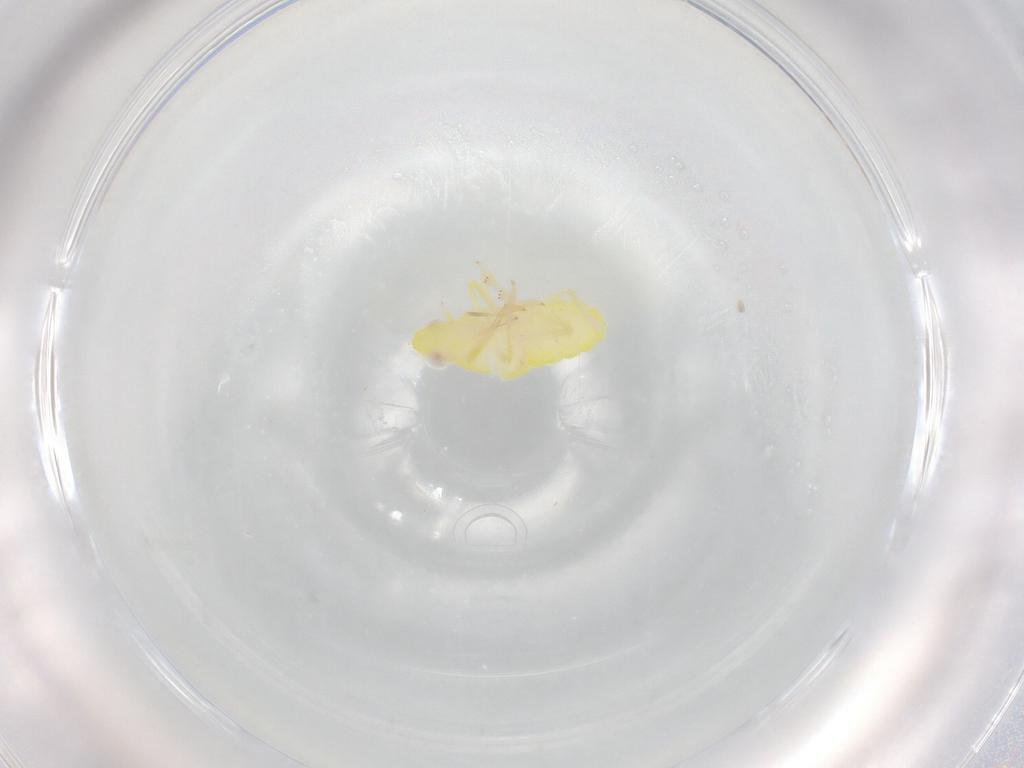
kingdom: Animalia
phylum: Arthropoda
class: Insecta
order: Hemiptera
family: Fulgoroidea_incertae_sedis
